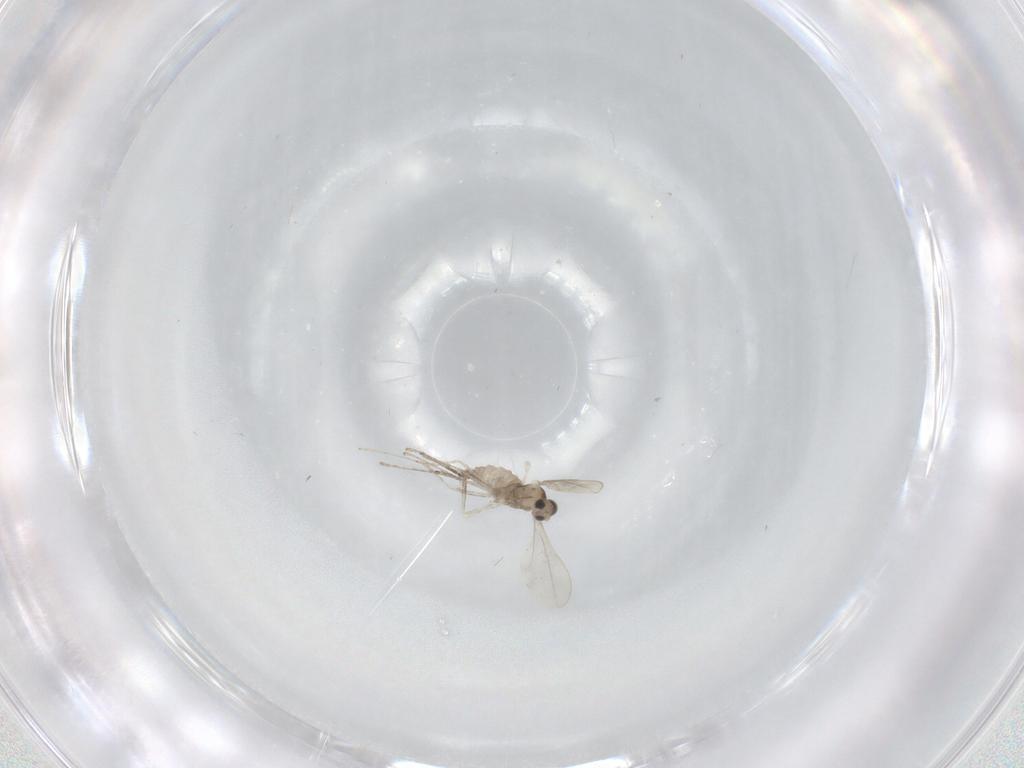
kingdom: Animalia
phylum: Arthropoda
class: Insecta
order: Diptera
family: Cecidomyiidae
